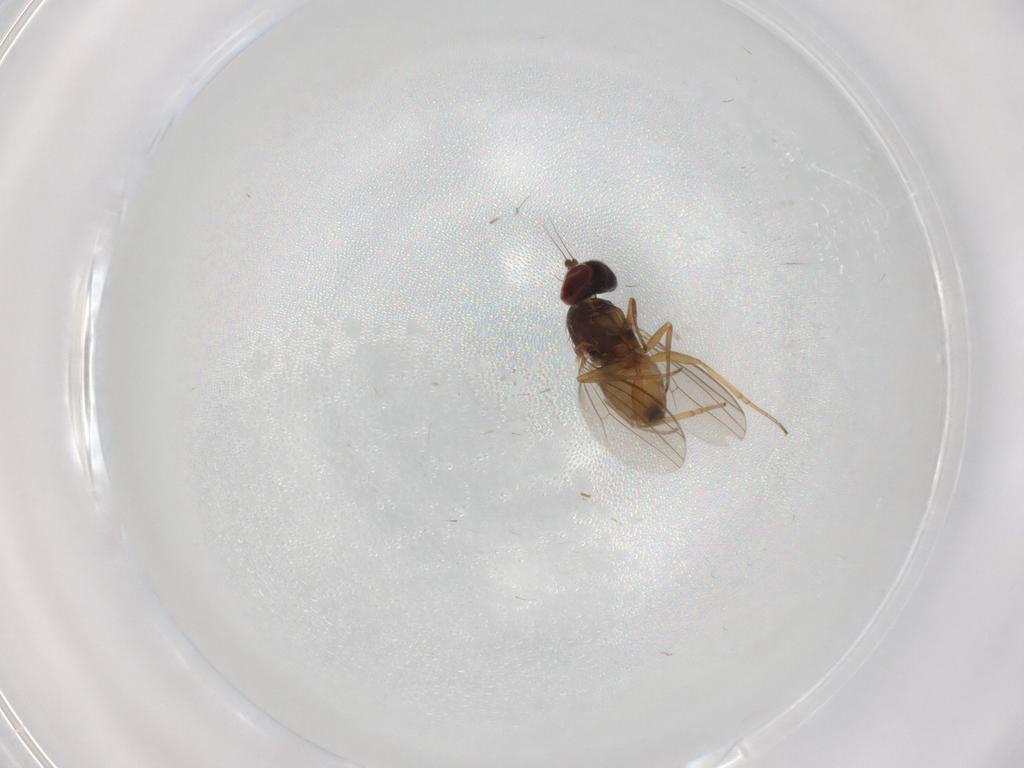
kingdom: Animalia
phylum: Arthropoda
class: Insecta
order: Diptera
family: Dolichopodidae
